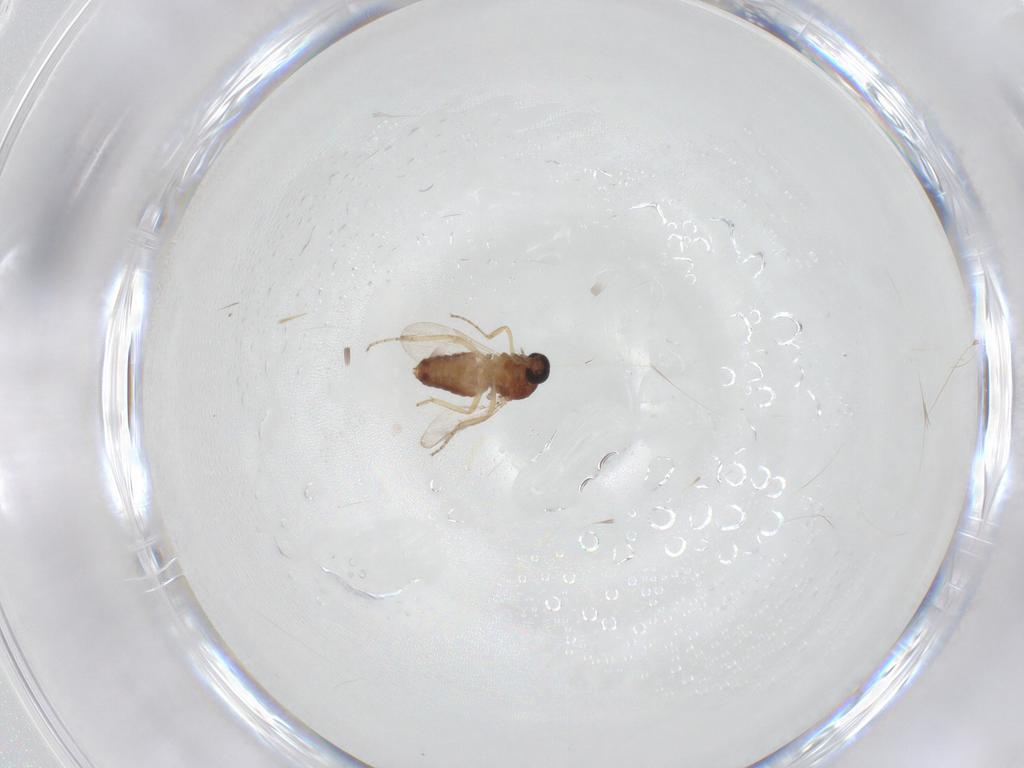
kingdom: Animalia
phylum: Arthropoda
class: Insecta
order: Diptera
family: Ceratopogonidae
